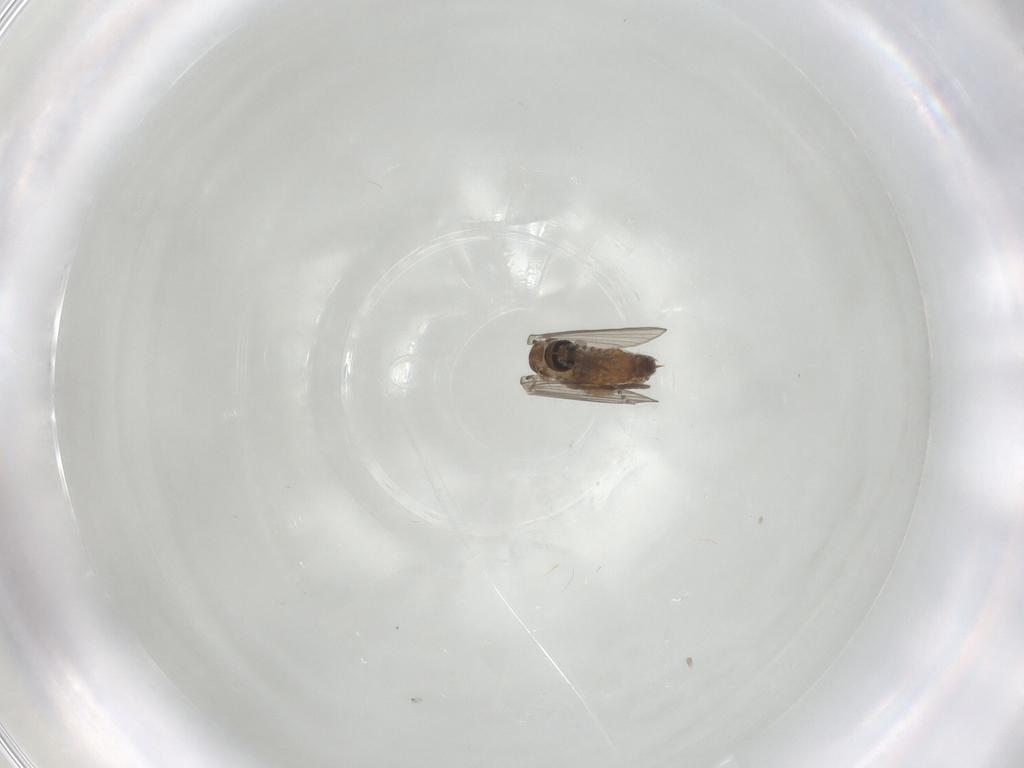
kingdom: Animalia
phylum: Arthropoda
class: Insecta
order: Diptera
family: Psychodidae
